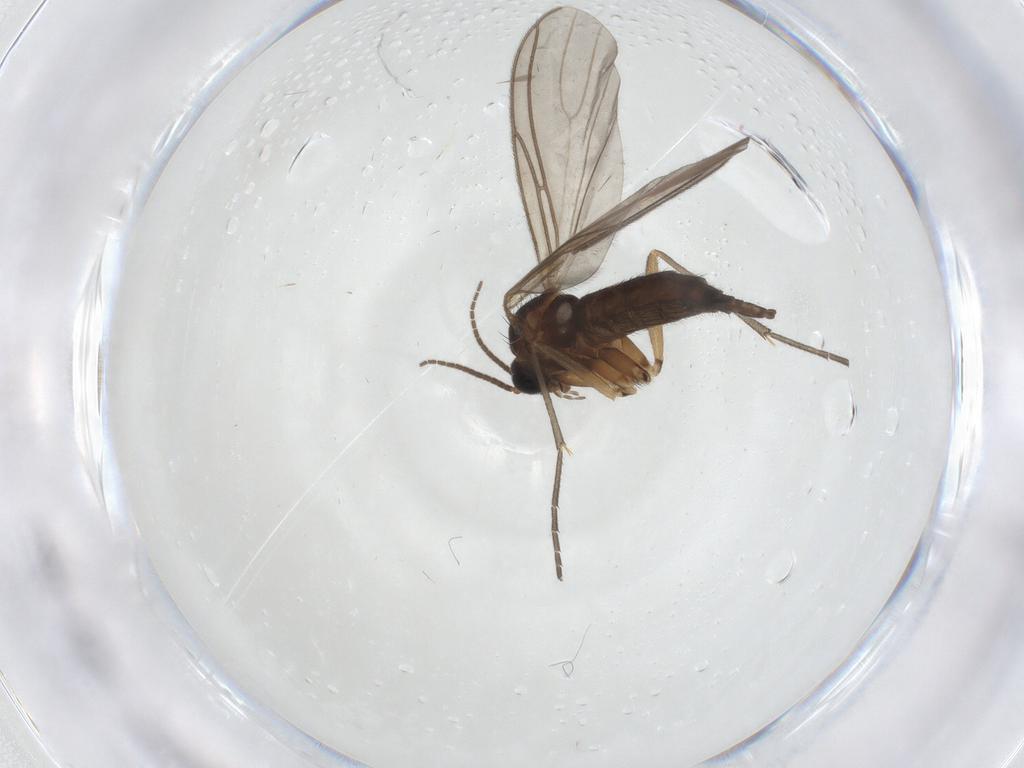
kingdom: Animalia
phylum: Arthropoda
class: Insecta
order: Diptera
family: Sciaridae
